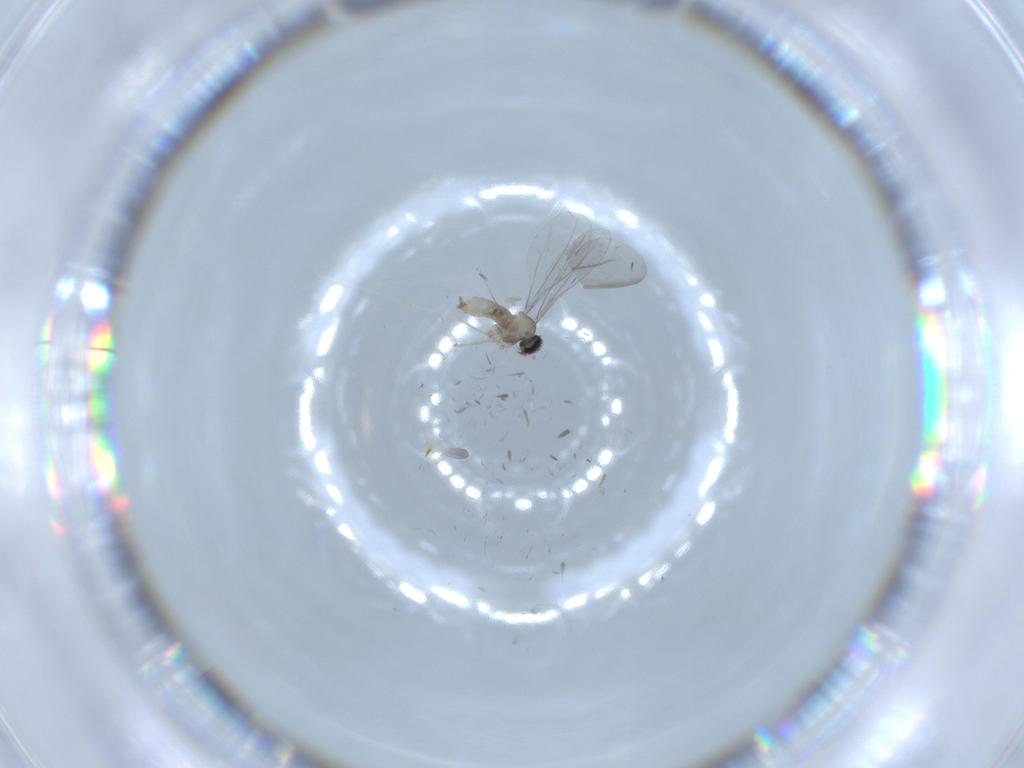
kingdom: Animalia
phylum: Arthropoda
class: Insecta
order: Diptera
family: Cecidomyiidae
